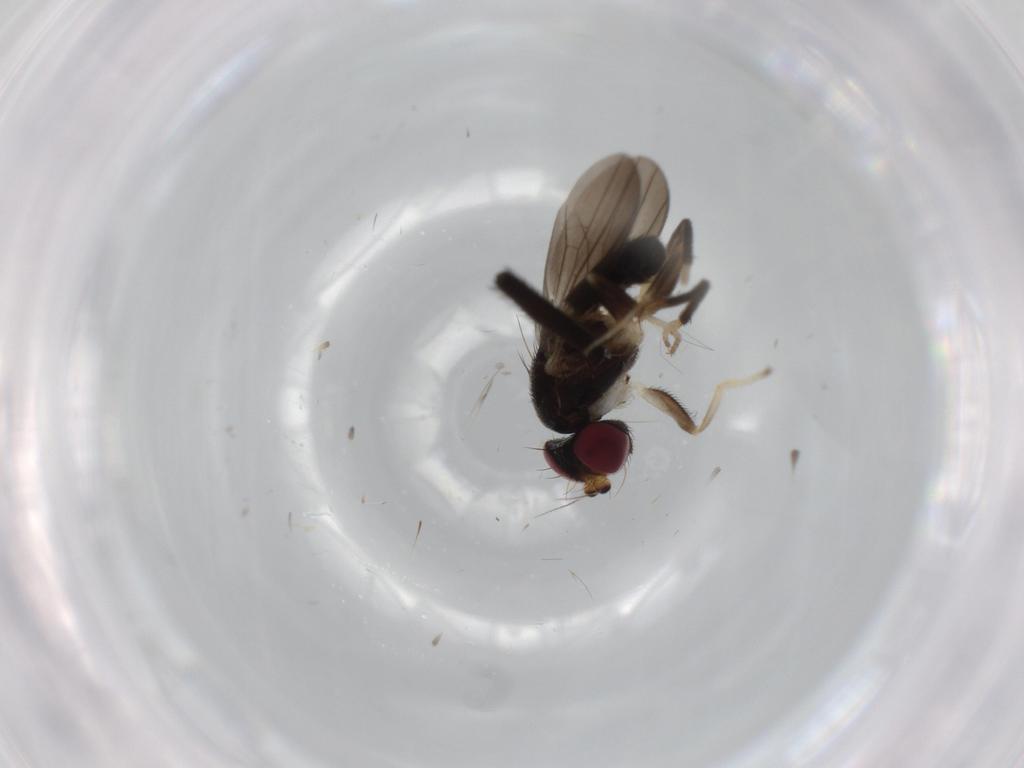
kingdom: Animalia
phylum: Arthropoda
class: Insecta
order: Diptera
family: Clusiidae
